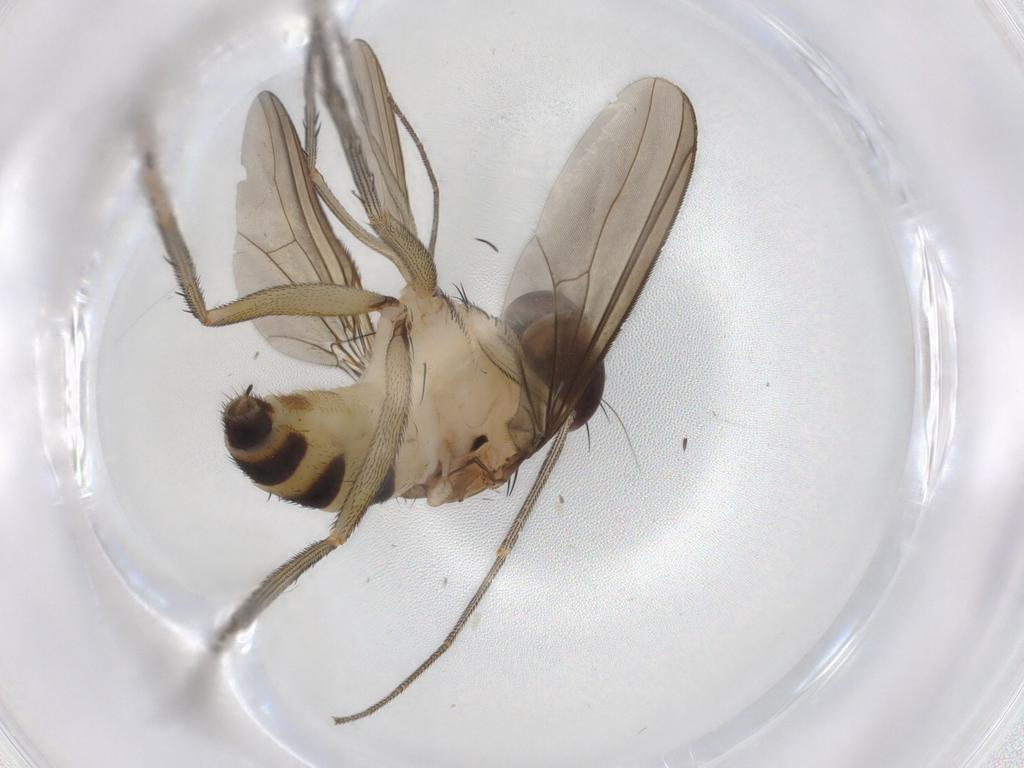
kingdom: Animalia
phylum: Arthropoda
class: Insecta
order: Diptera
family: Dolichopodidae
